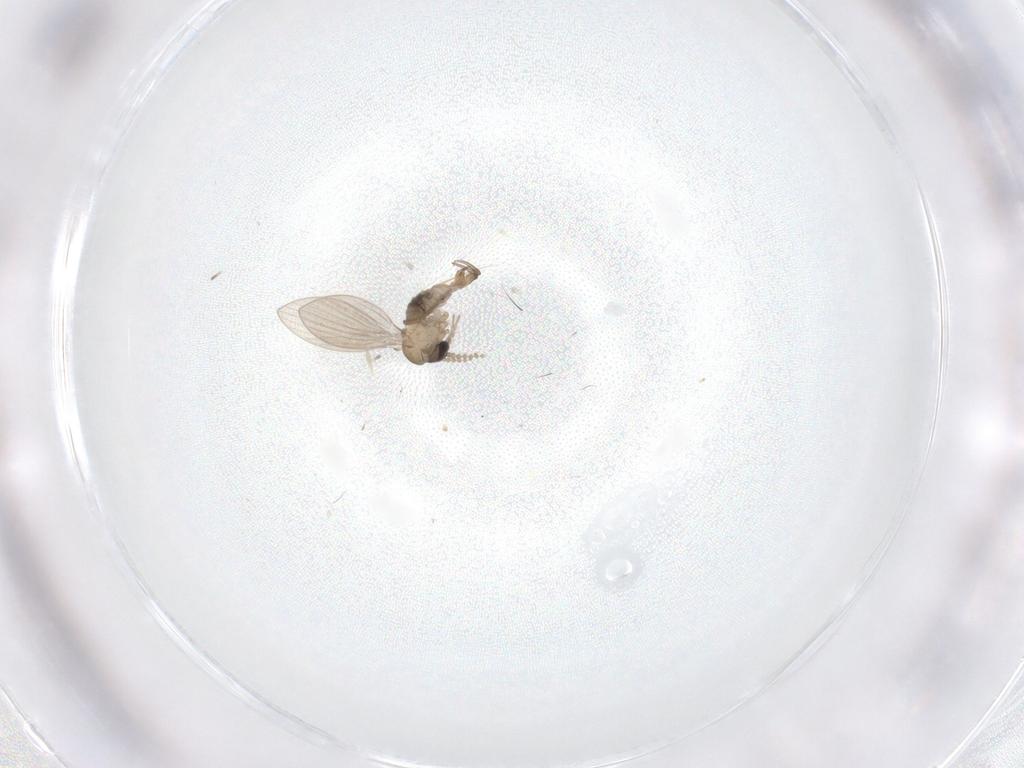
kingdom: Animalia
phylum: Arthropoda
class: Insecta
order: Diptera
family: Psychodidae
